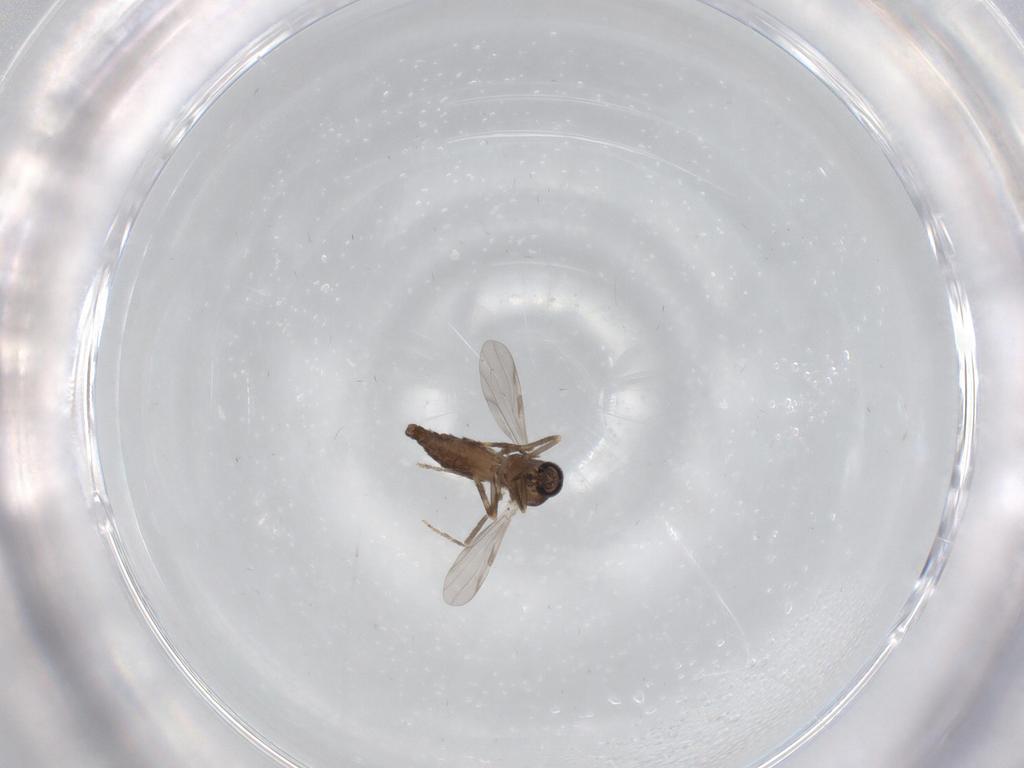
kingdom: Animalia
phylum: Arthropoda
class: Insecta
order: Diptera
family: Ceratopogonidae
